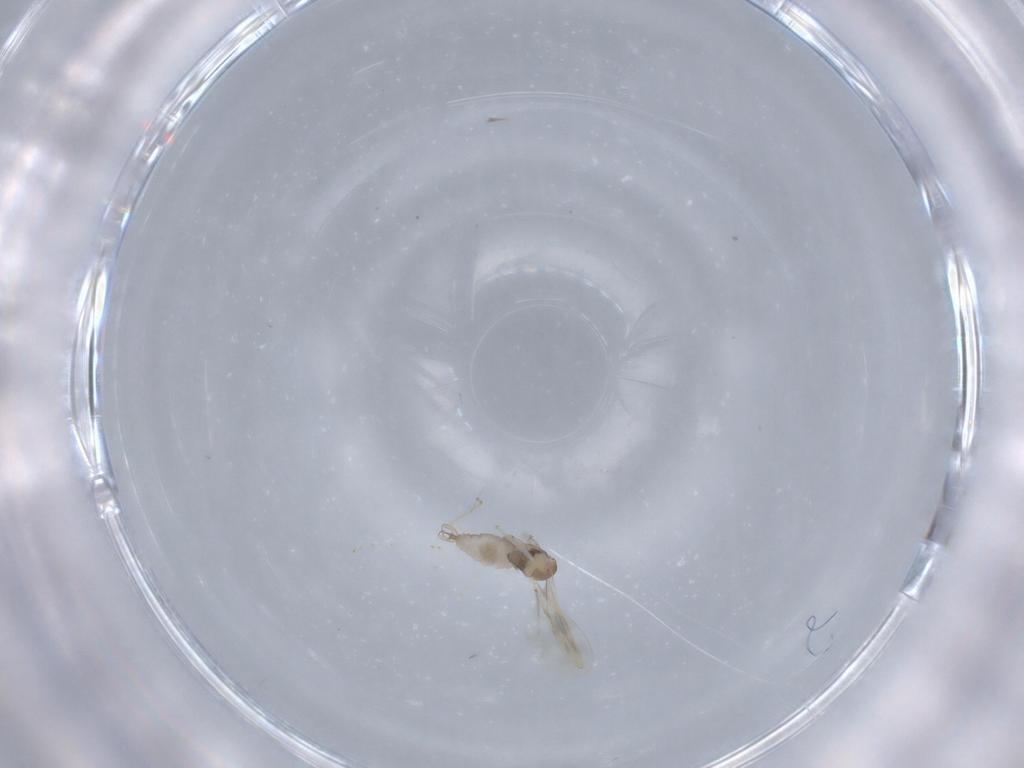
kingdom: Animalia
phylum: Arthropoda
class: Insecta
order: Diptera
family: Cecidomyiidae
